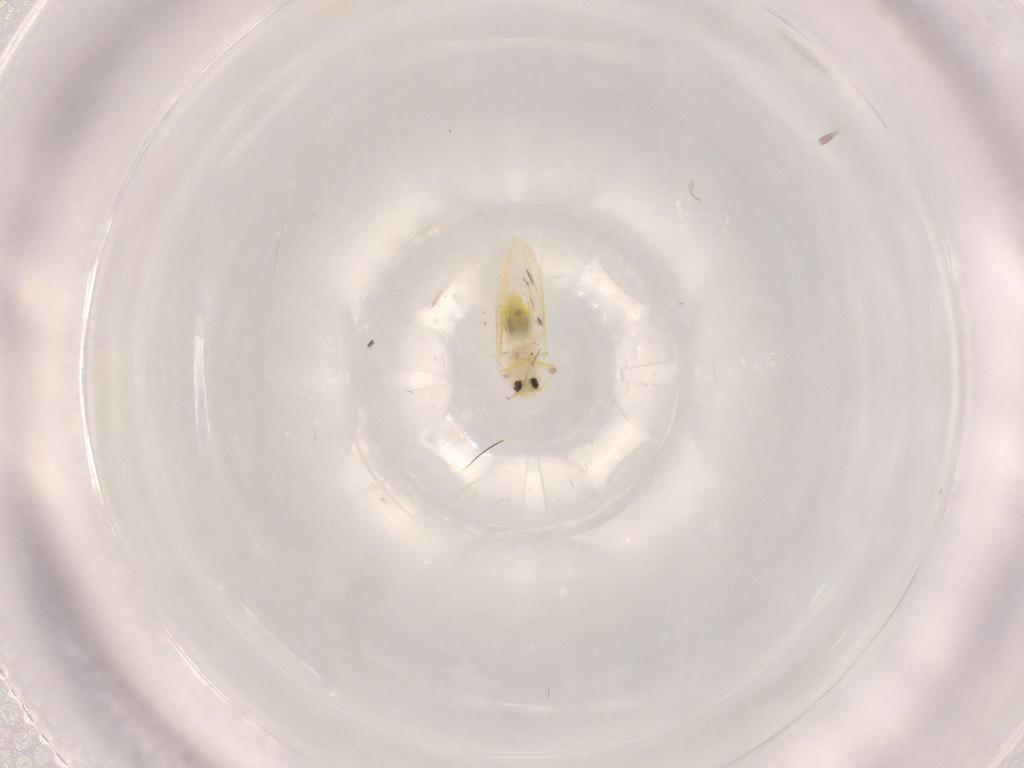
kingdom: Animalia
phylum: Arthropoda
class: Insecta
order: Hemiptera
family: Aleyrodidae
